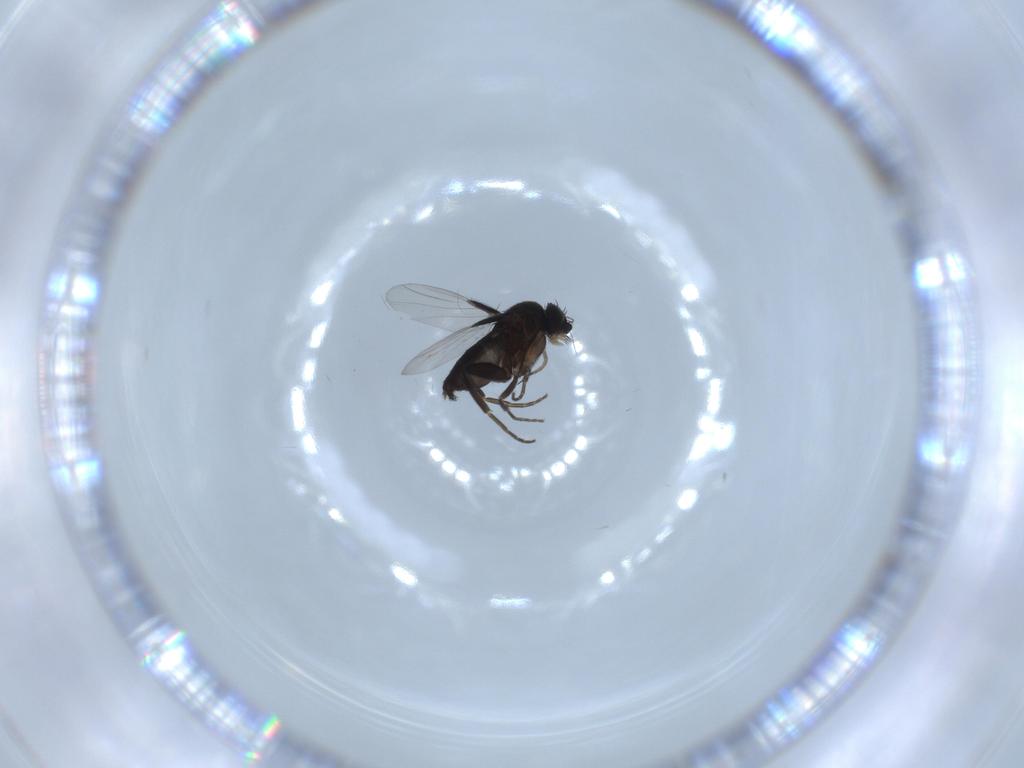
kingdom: Animalia
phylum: Arthropoda
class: Insecta
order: Diptera
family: Phoridae
